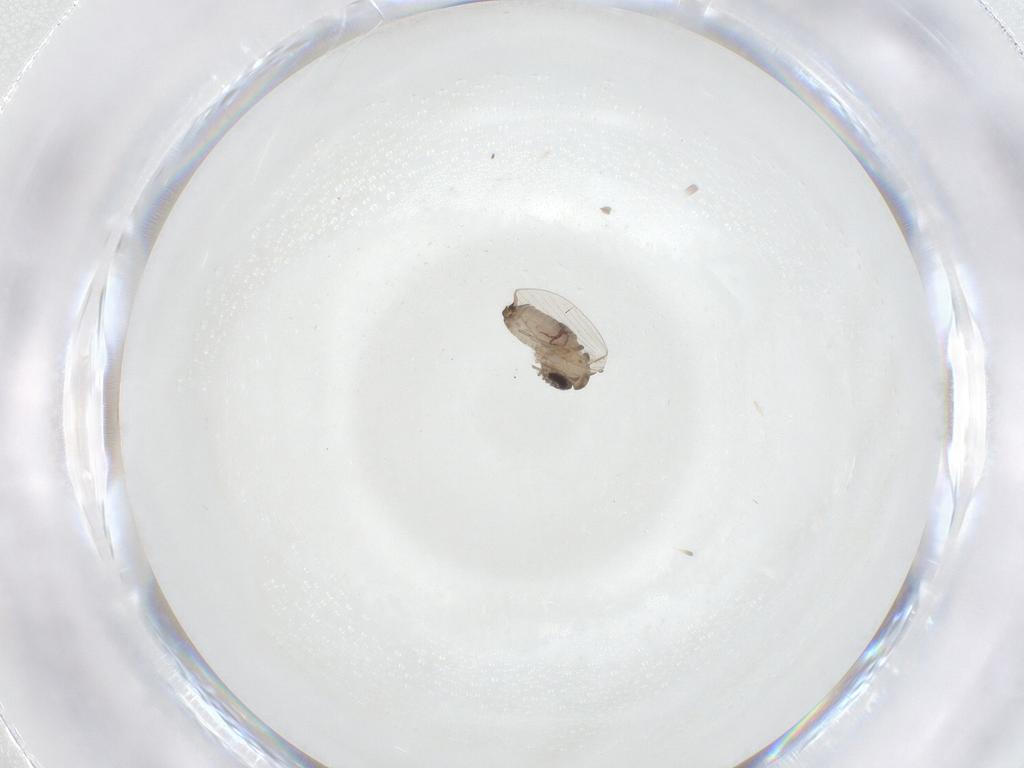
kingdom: Animalia
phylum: Arthropoda
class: Insecta
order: Diptera
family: Psychodidae
